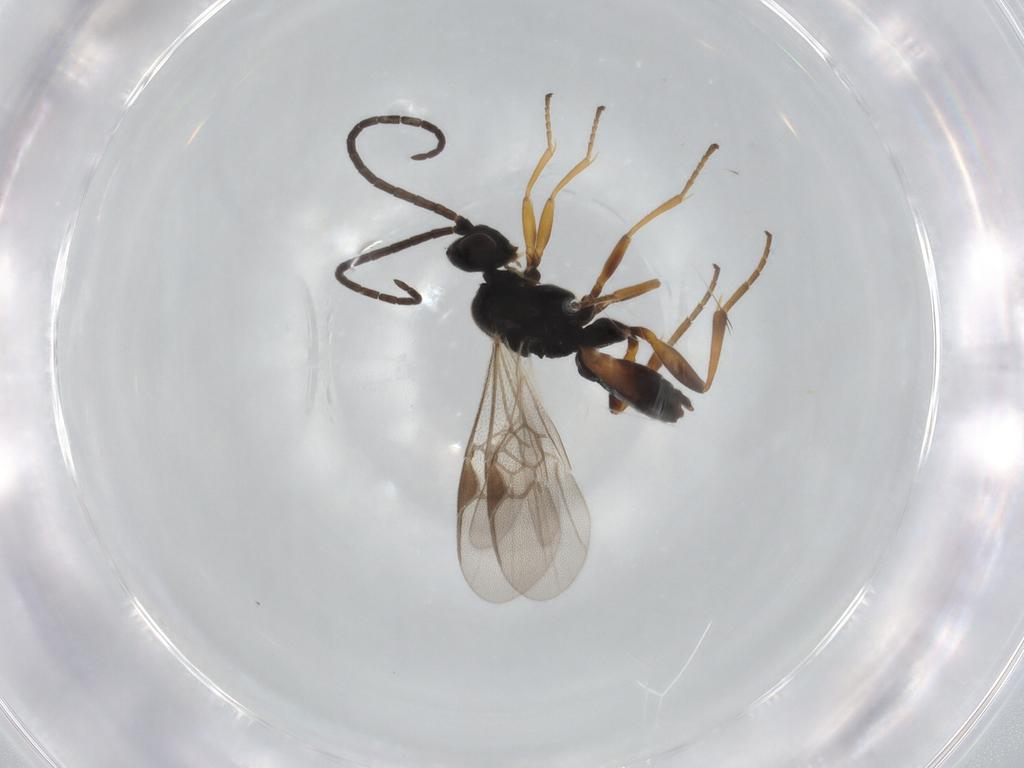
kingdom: Animalia
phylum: Arthropoda
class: Insecta
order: Hymenoptera
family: Braconidae
